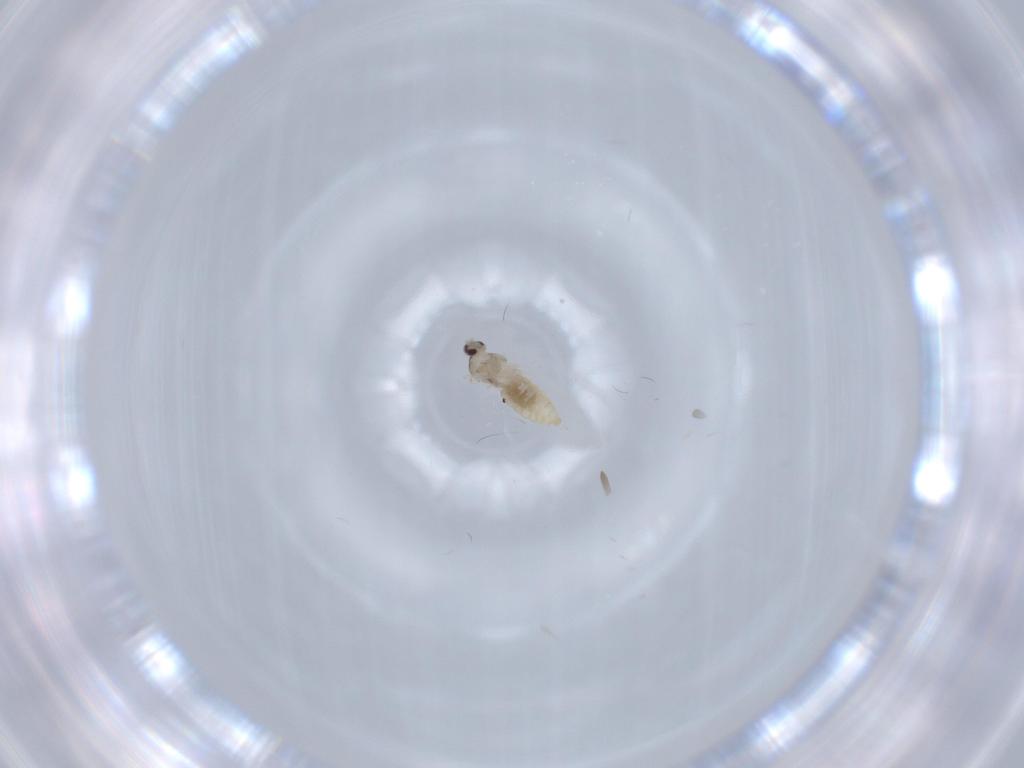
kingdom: Animalia
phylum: Arthropoda
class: Insecta
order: Diptera
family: Cecidomyiidae
